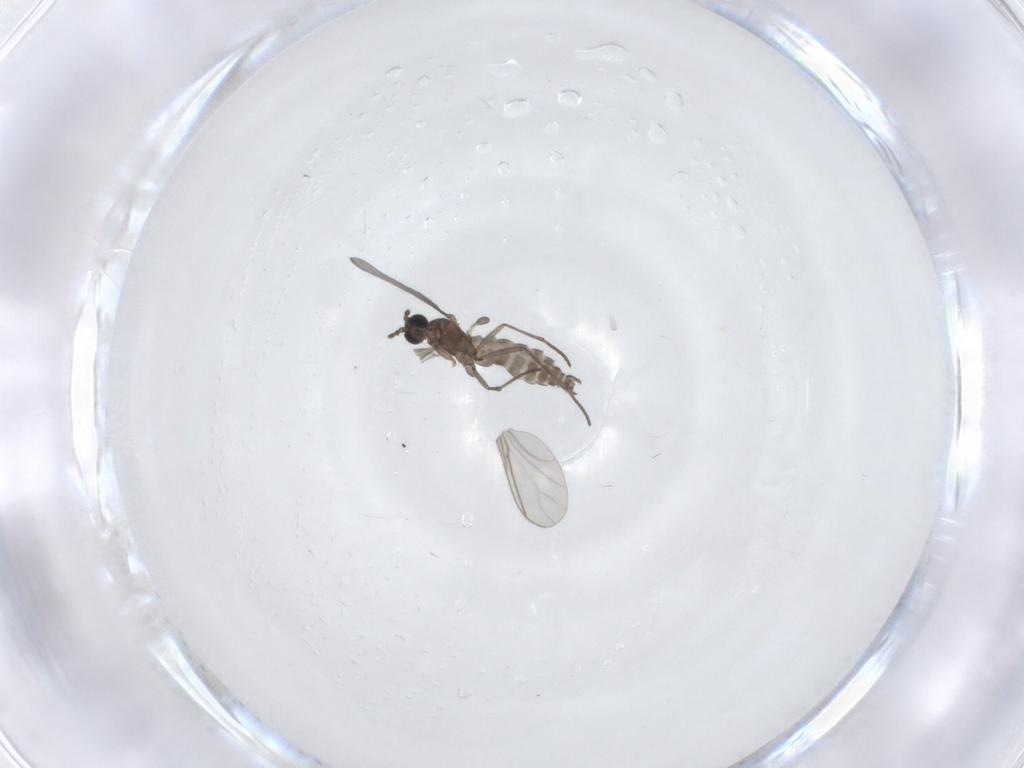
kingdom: Animalia
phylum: Arthropoda
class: Insecta
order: Diptera
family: Sciaridae
